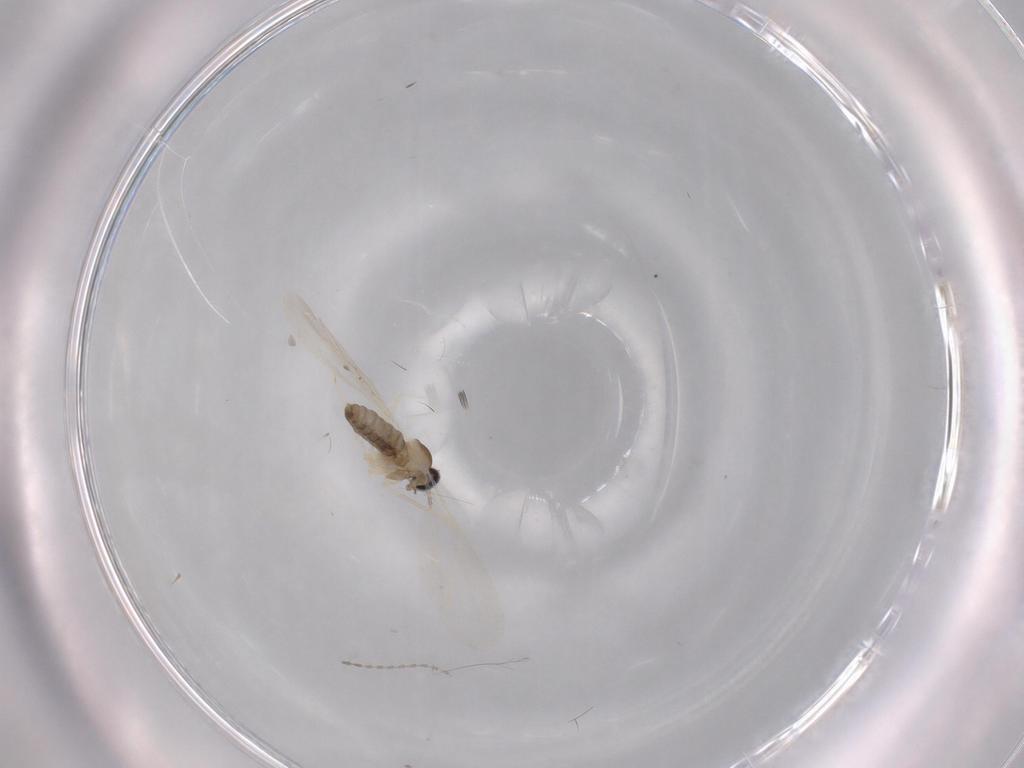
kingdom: Animalia
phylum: Arthropoda
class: Insecta
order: Diptera
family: Cecidomyiidae
